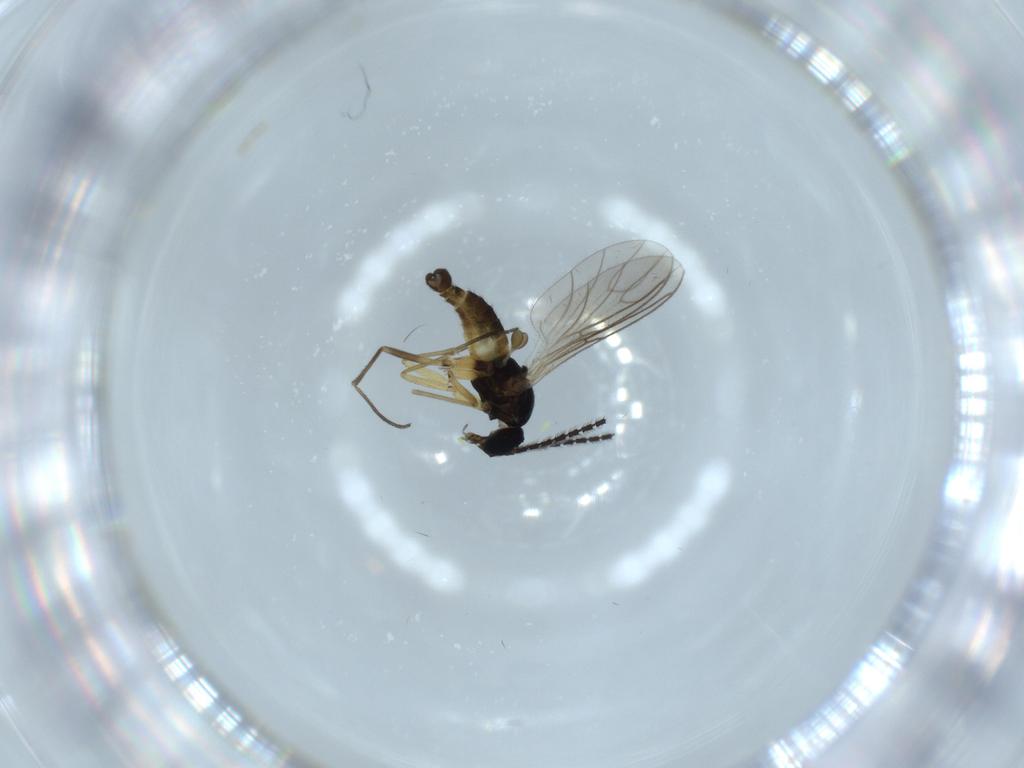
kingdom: Animalia
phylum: Arthropoda
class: Insecta
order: Diptera
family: Sciaridae
